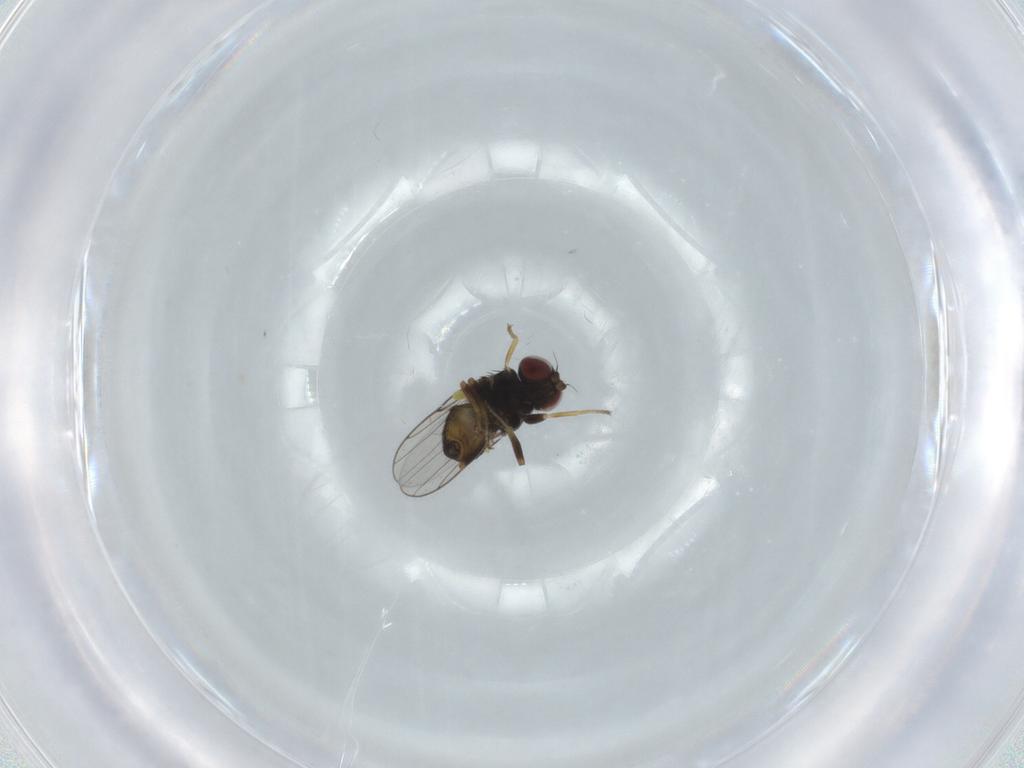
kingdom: Animalia
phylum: Arthropoda
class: Insecta
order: Diptera
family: Chloropidae
